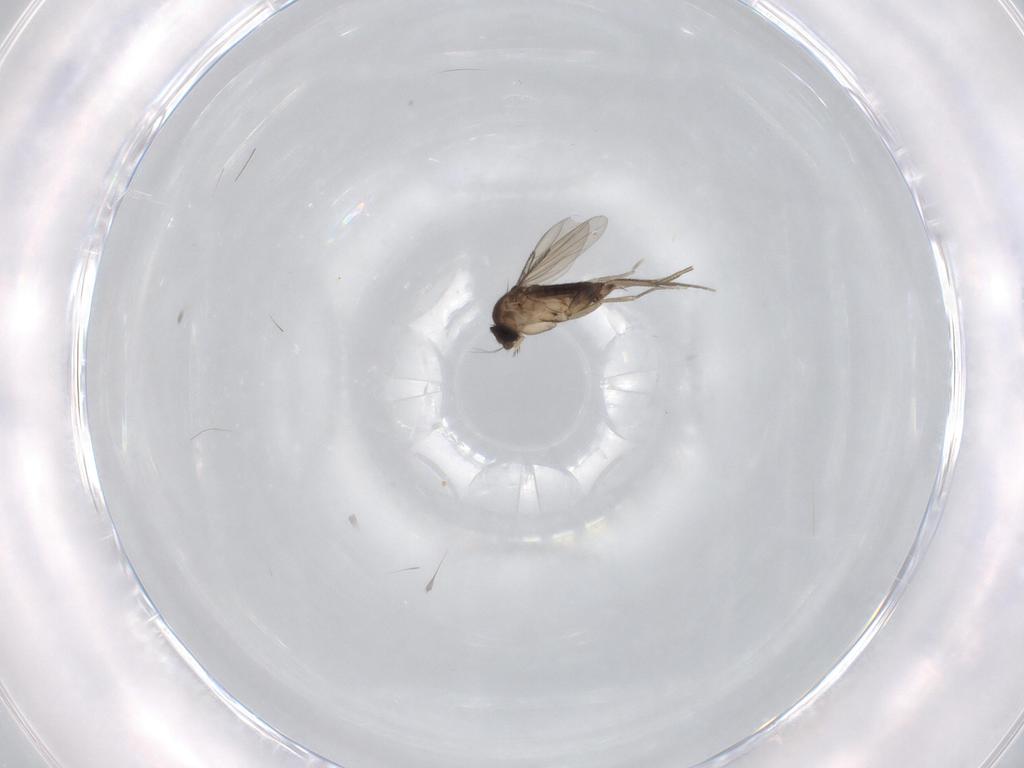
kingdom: Animalia
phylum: Arthropoda
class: Insecta
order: Diptera
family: Phoridae
